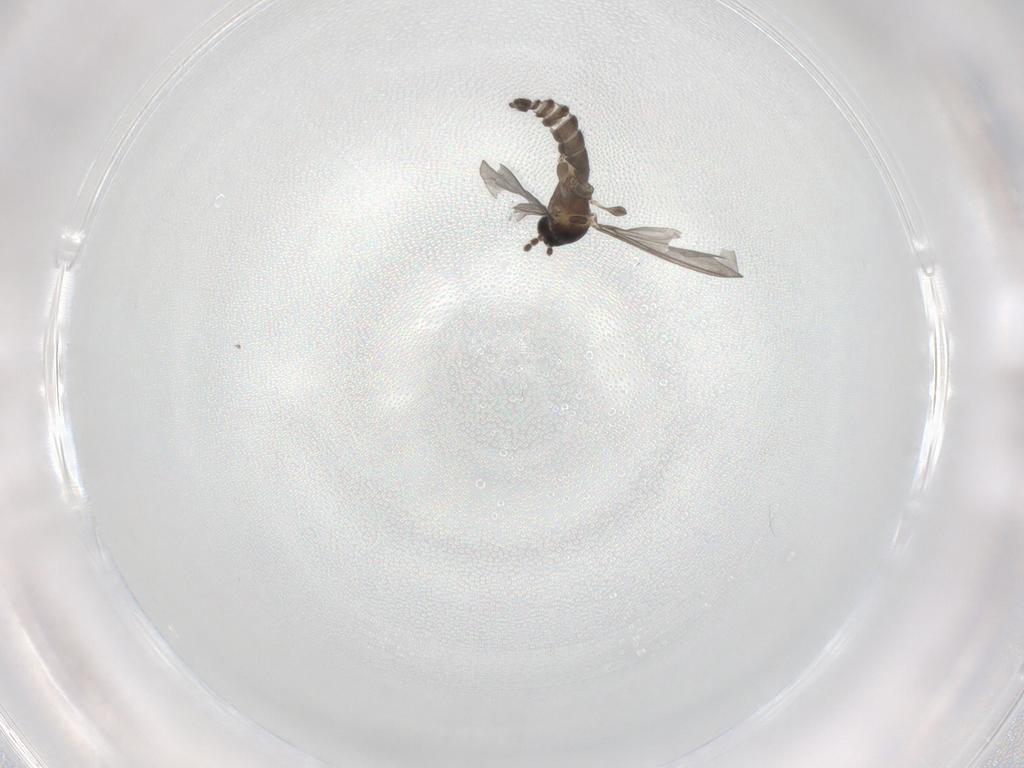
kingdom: Animalia
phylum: Arthropoda
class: Insecta
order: Diptera
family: Chironomidae
